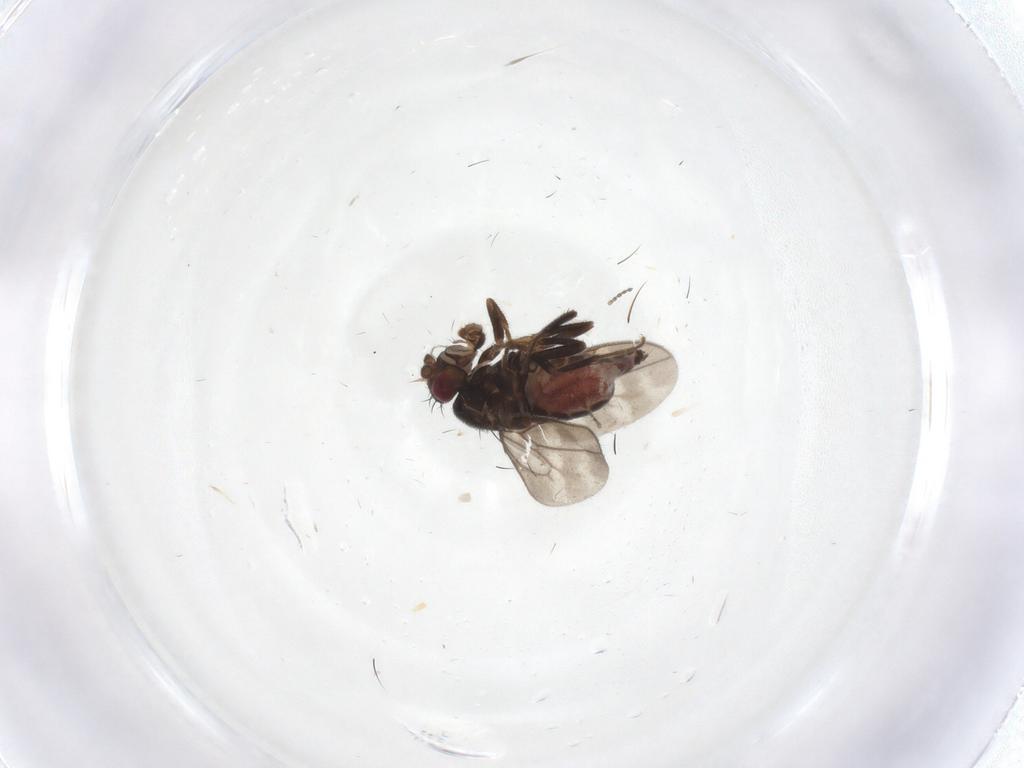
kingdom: Animalia
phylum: Arthropoda
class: Insecta
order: Diptera
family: Cecidomyiidae
